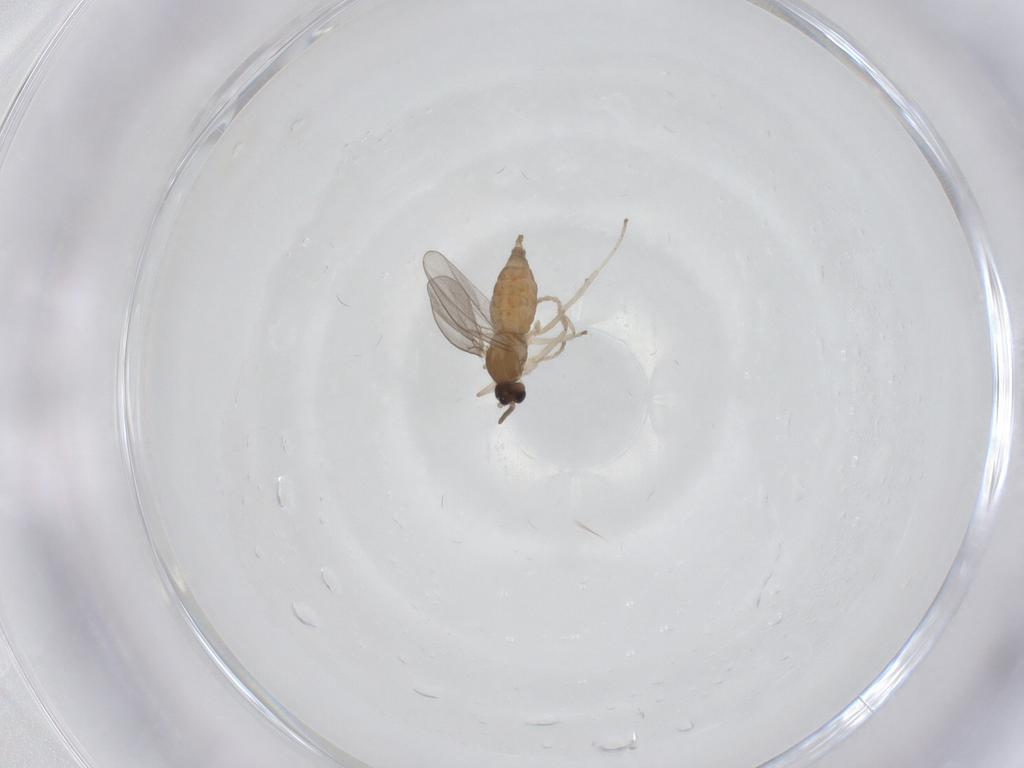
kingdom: Animalia
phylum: Arthropoda
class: Insecta
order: Diptera
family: Cecidomyiidae
